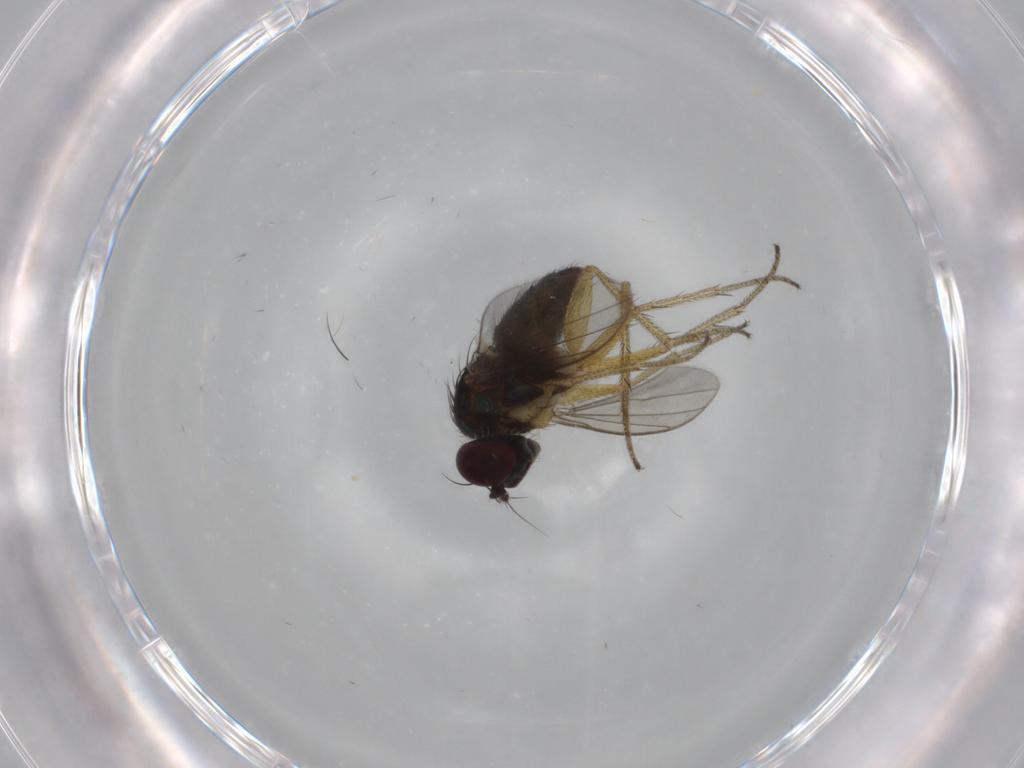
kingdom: Animalia
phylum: Arthropoda
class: Insecta
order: Diptera
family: Dolichopodidae
